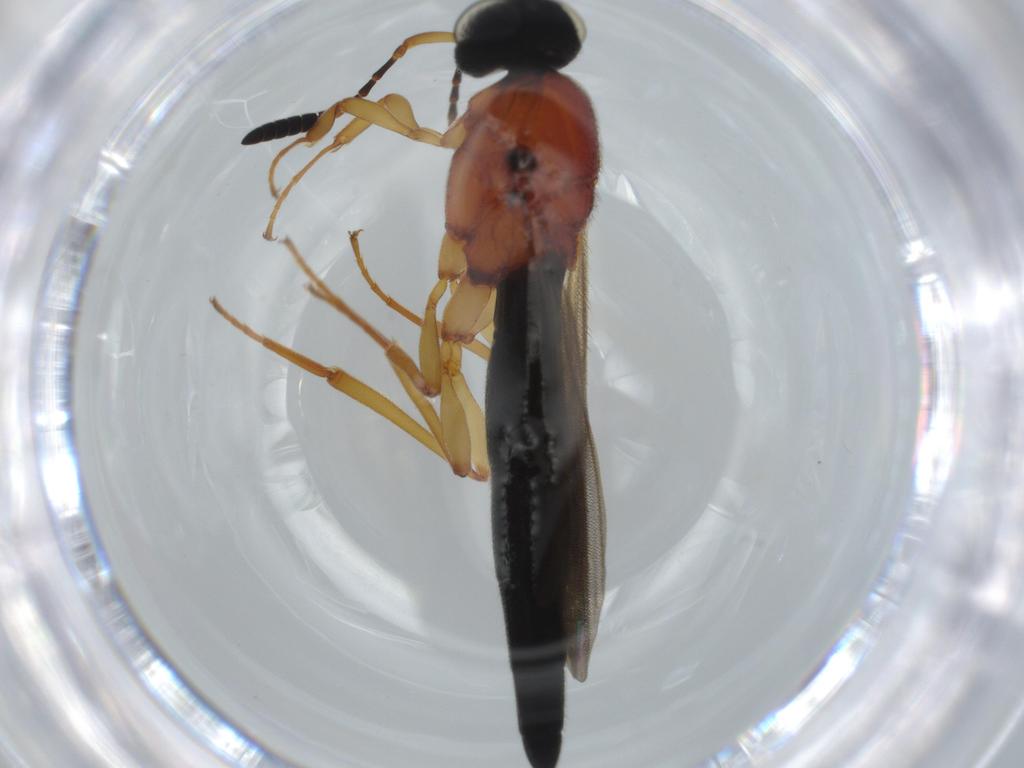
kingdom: Animalia
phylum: Arthropoda
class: Insecta
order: Hymenoptera
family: Scelionidae
